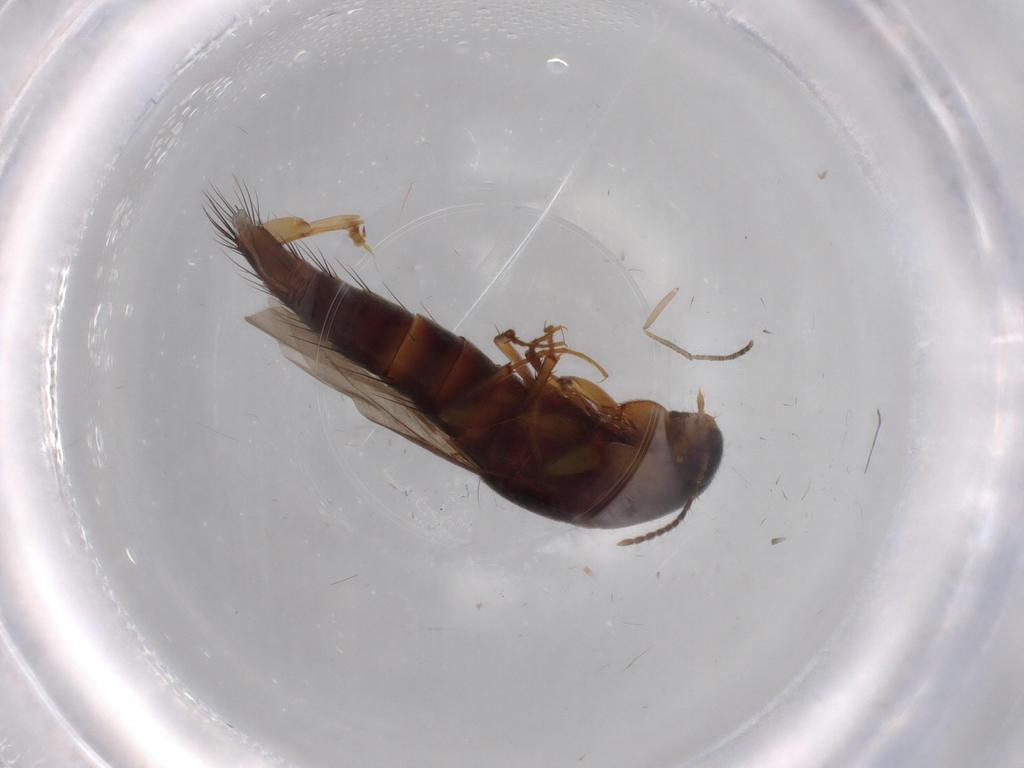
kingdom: Animalia
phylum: Arthropoda
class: Insecta
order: Coleoptera
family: Staphylinidae
